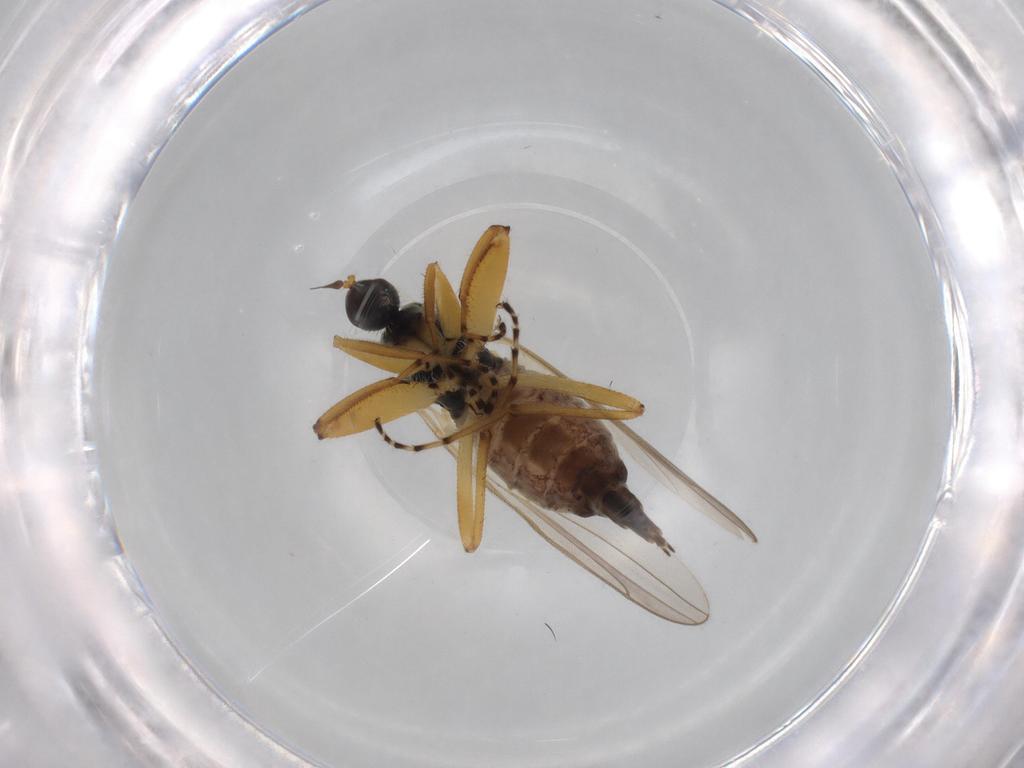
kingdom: Animalia
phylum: Arthropoda
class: Insecta
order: Diptera
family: Hybotidae
